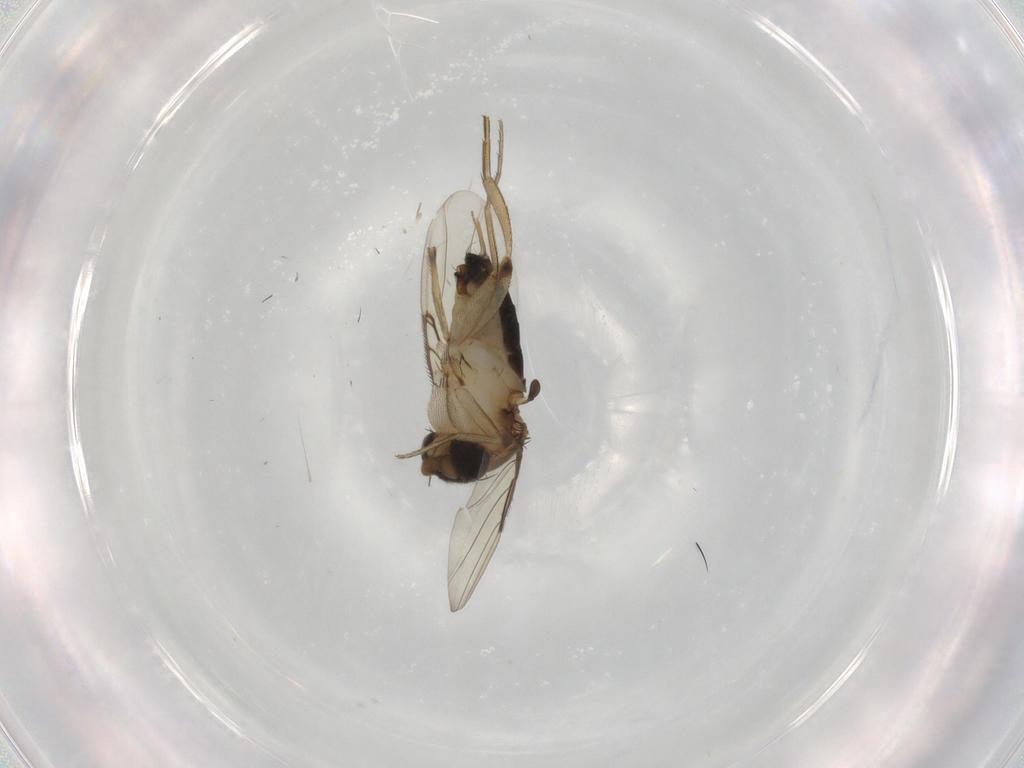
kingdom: Animalia
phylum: Arthropoda
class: Insecta
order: Diptera
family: Phoridae
